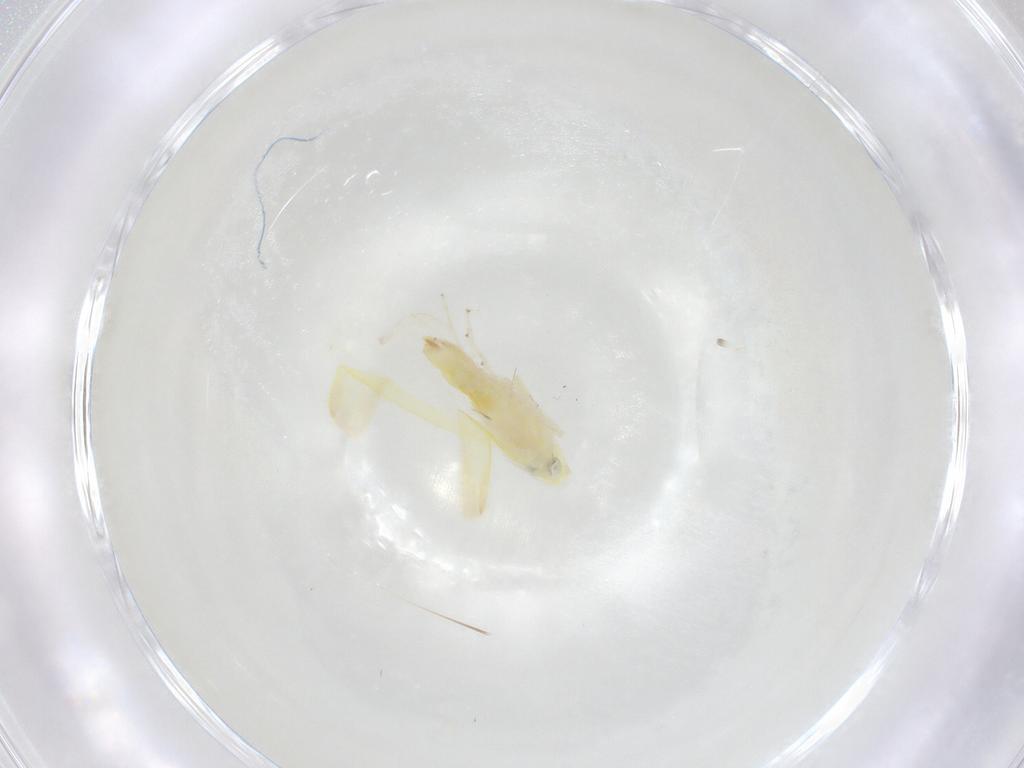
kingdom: Animalia
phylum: Arthropoda
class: Insecta
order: Hemiptera
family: Cicadellidae
